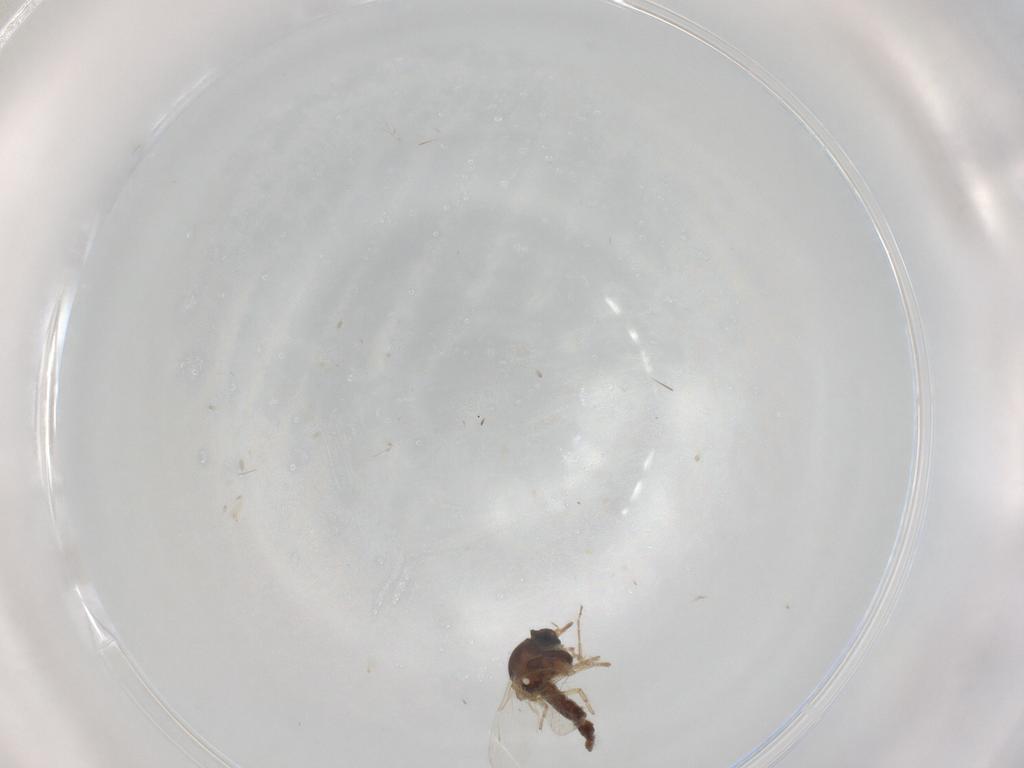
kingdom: Animalia
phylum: Arthropoda
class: Insecta
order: Diptera
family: Ceratopogonidae
